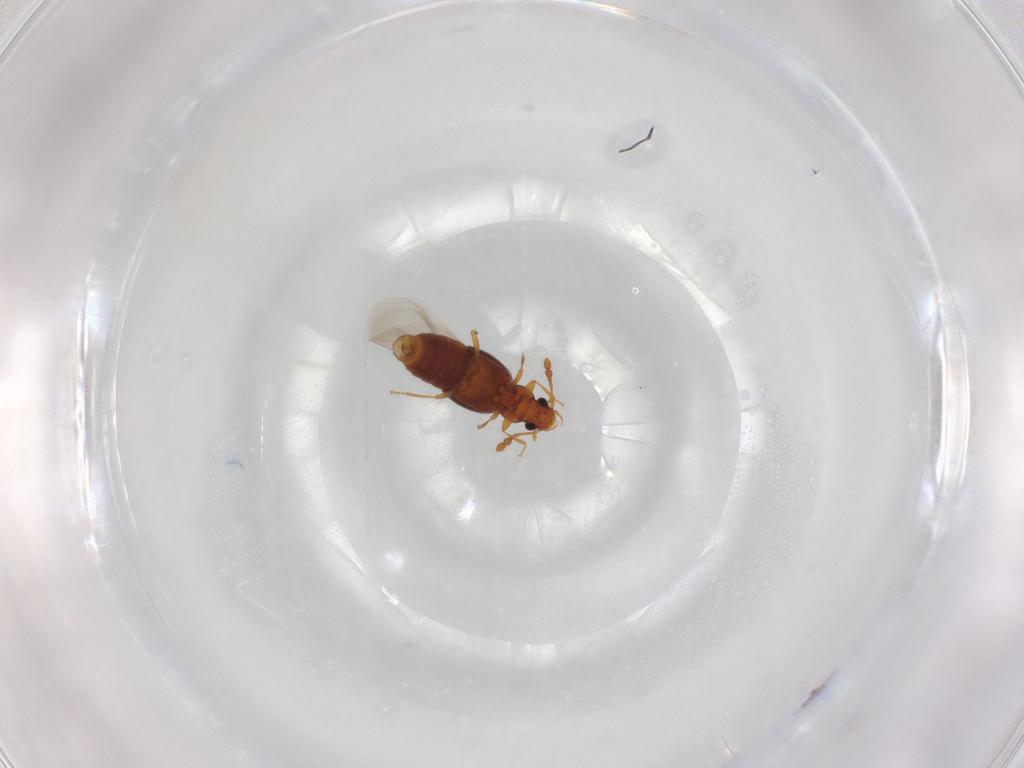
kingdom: Animalia
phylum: Arthropoda
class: Insecta
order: Coleoptera
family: Staphylinidae
